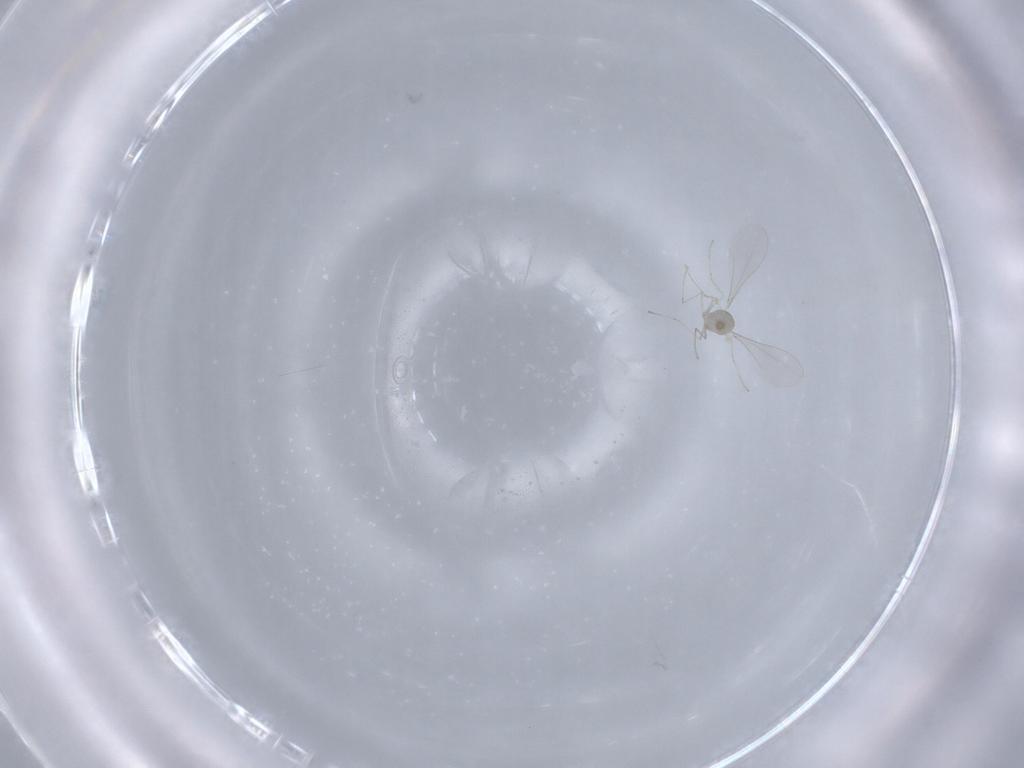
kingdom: Animalia
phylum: Arthropoda
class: Insecta
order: Diptera
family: Cecidomyiidae
